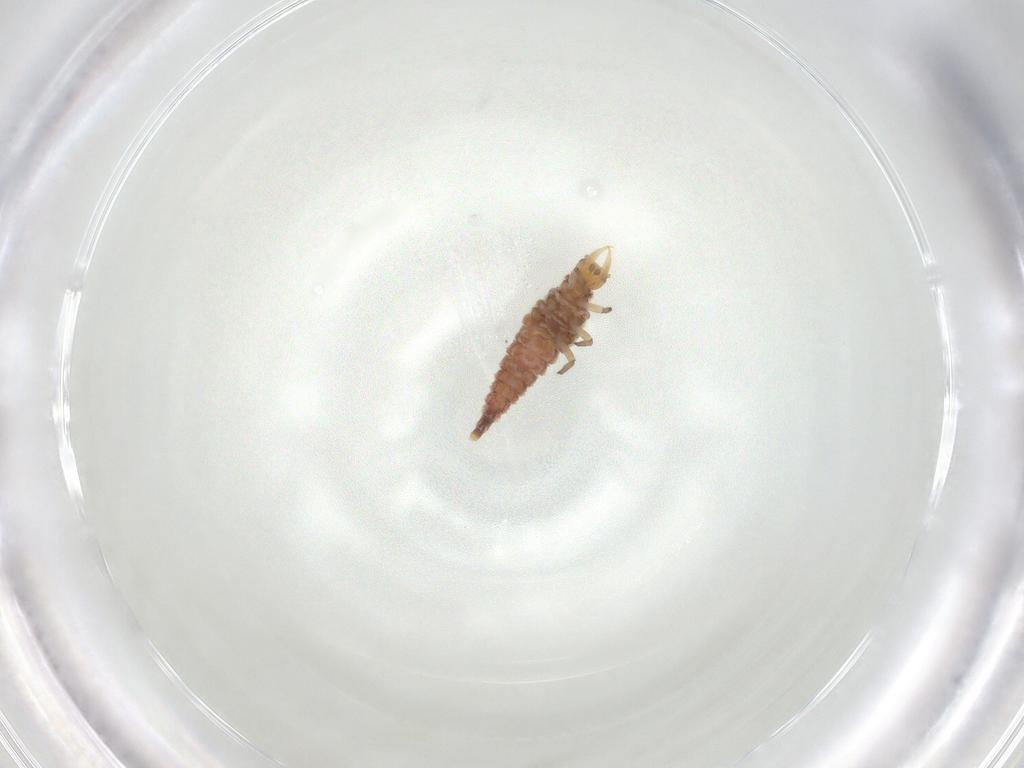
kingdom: Animalia
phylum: Arthropoda
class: Insecta
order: Neuroptera
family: Hemerobiidae
